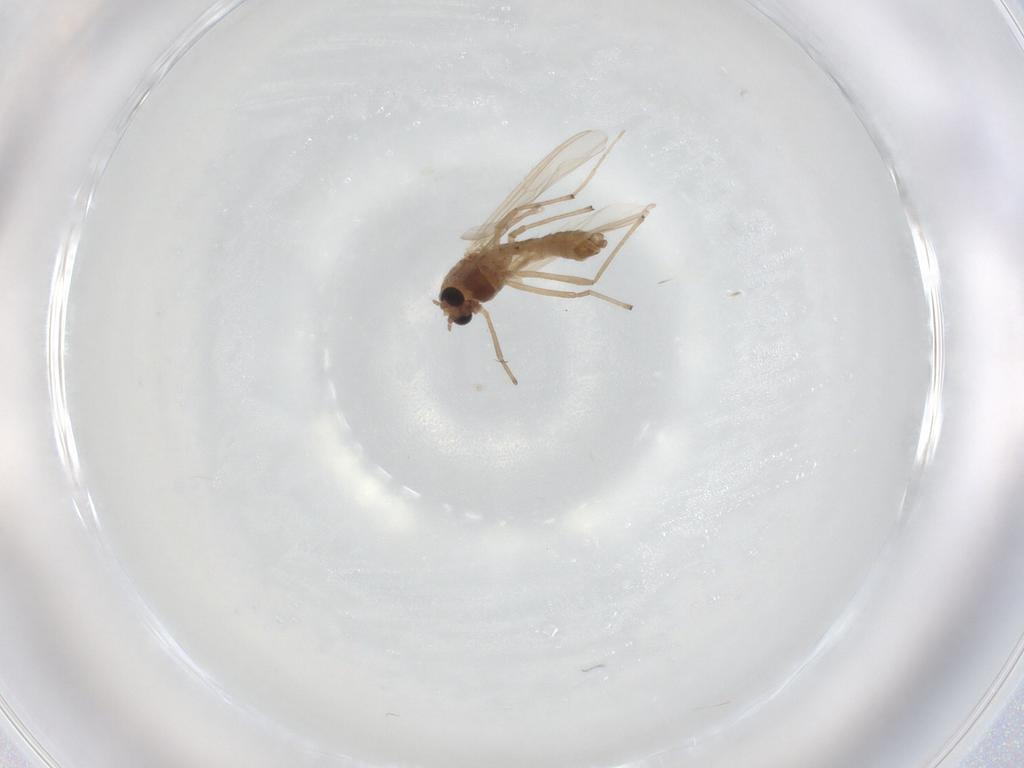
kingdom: Animalia
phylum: Arthropoda
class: Insecta
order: Diptera
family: Chironomidae
